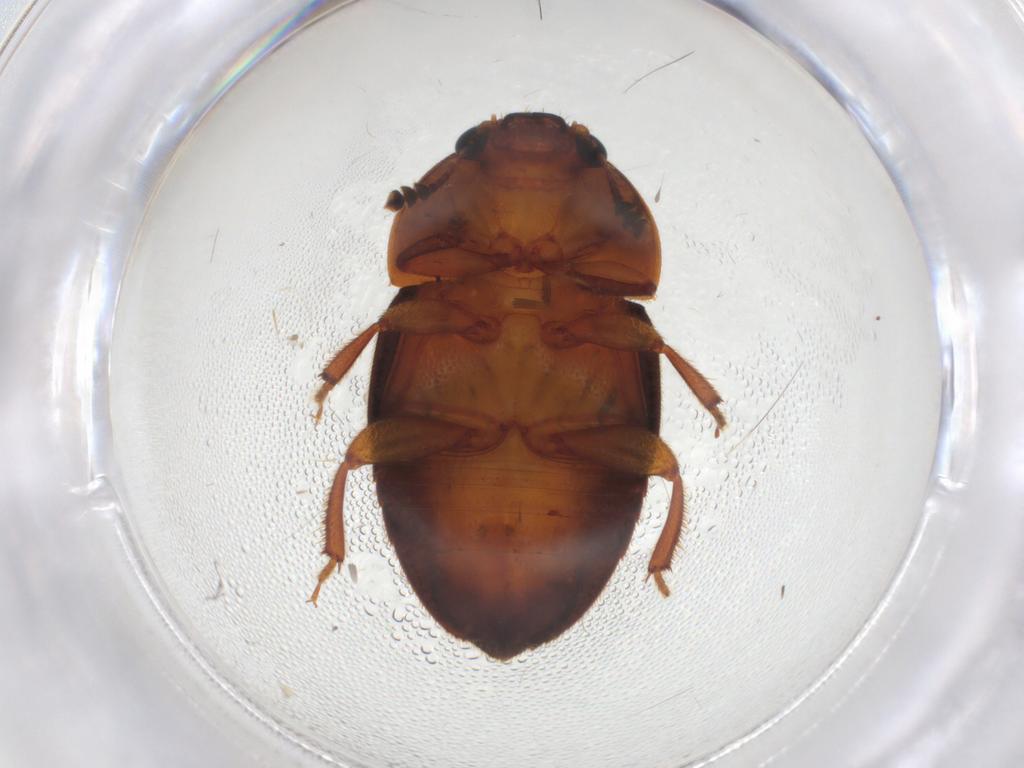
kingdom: Animalia
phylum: Arthropoda
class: Insecta
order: Coleoptera
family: Nitidulidae
